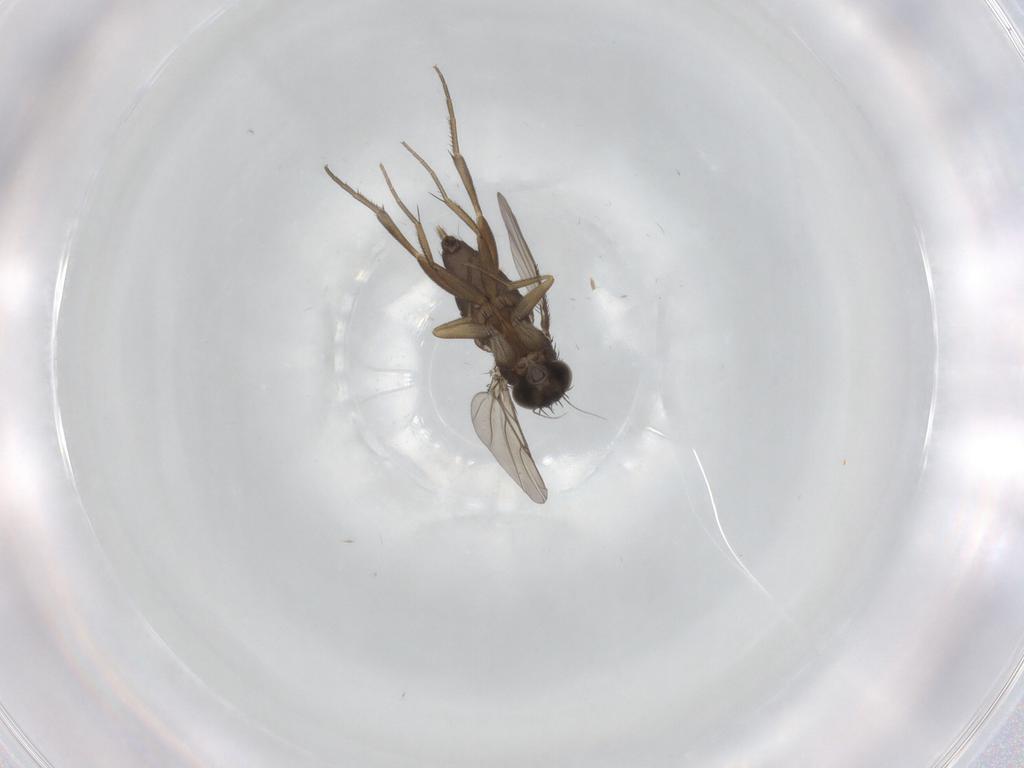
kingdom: Animalia
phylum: Arthropoda
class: Insecta
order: Diptera
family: Phoridae
